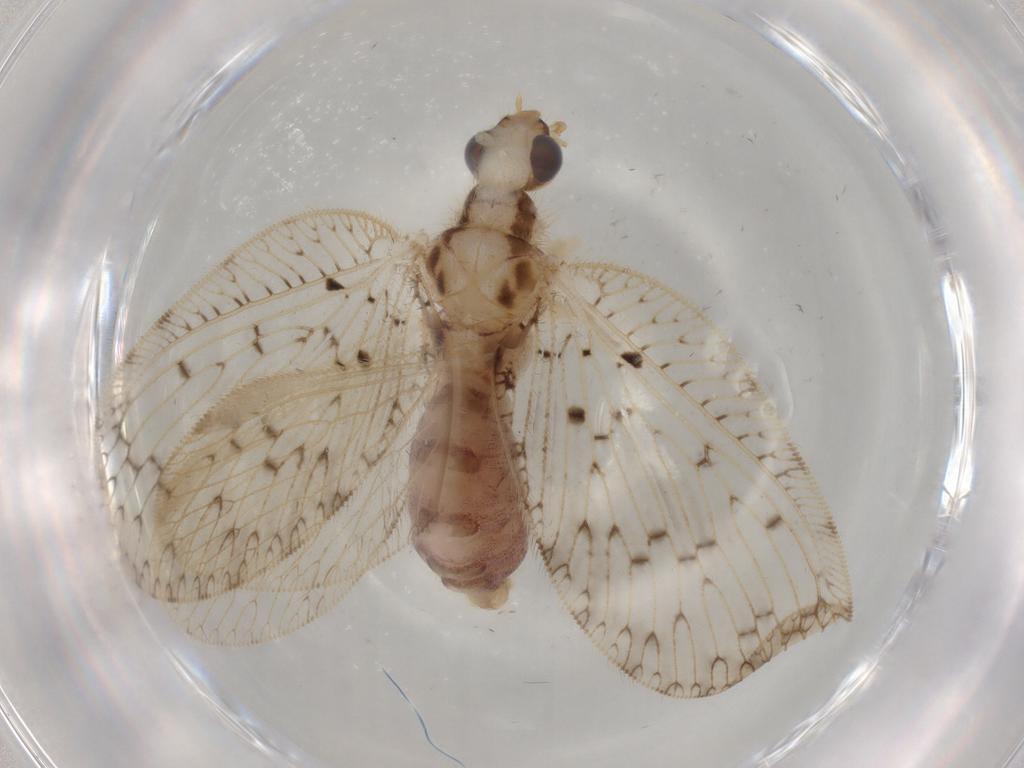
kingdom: Animalia
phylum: Arthropoda
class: Insecta
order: Neuroptera
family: Hemerobiidae
